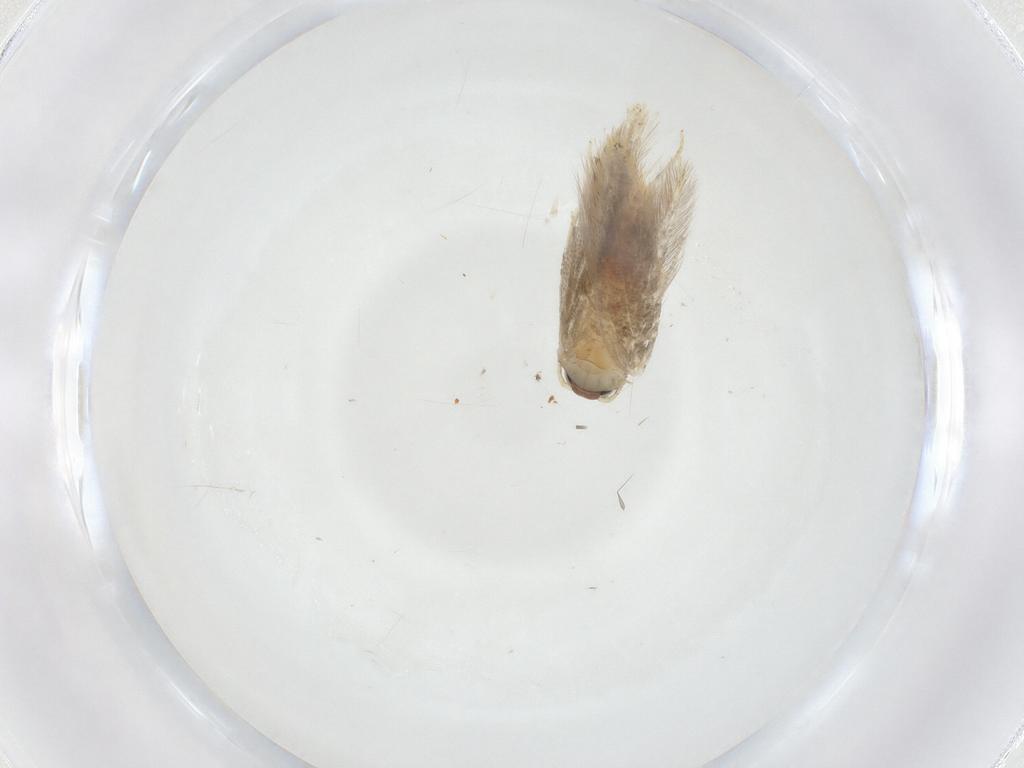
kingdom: Animalia
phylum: Arthropoda
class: Insecta
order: Lepidoptera
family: Tineidae
